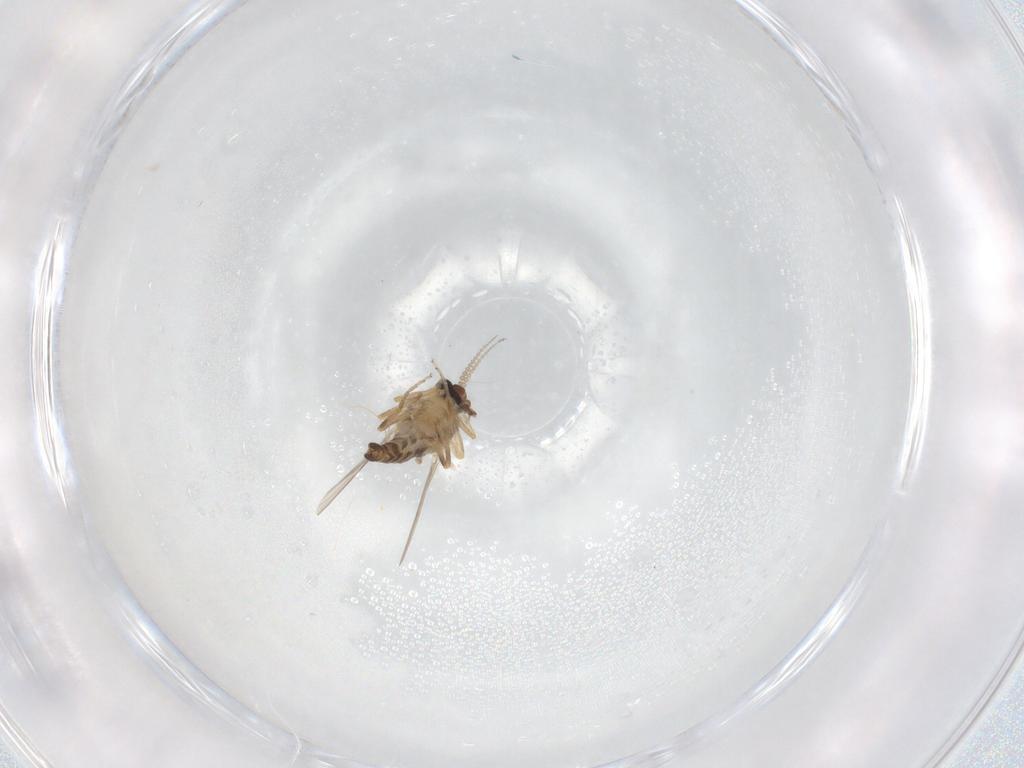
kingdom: Animalia
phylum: Arthropoda
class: Insecta
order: Diptera
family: Ceratopogonidae
